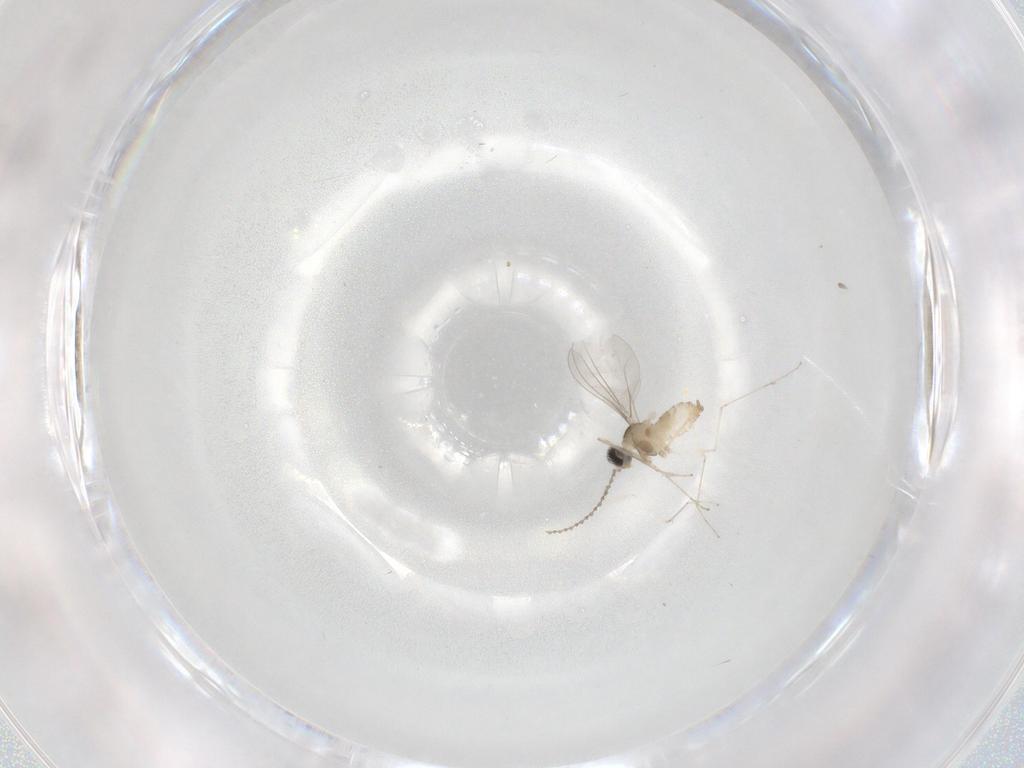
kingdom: Animalia
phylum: Arthropoda
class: Insecta
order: Diptera
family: Cecidomyiidae
